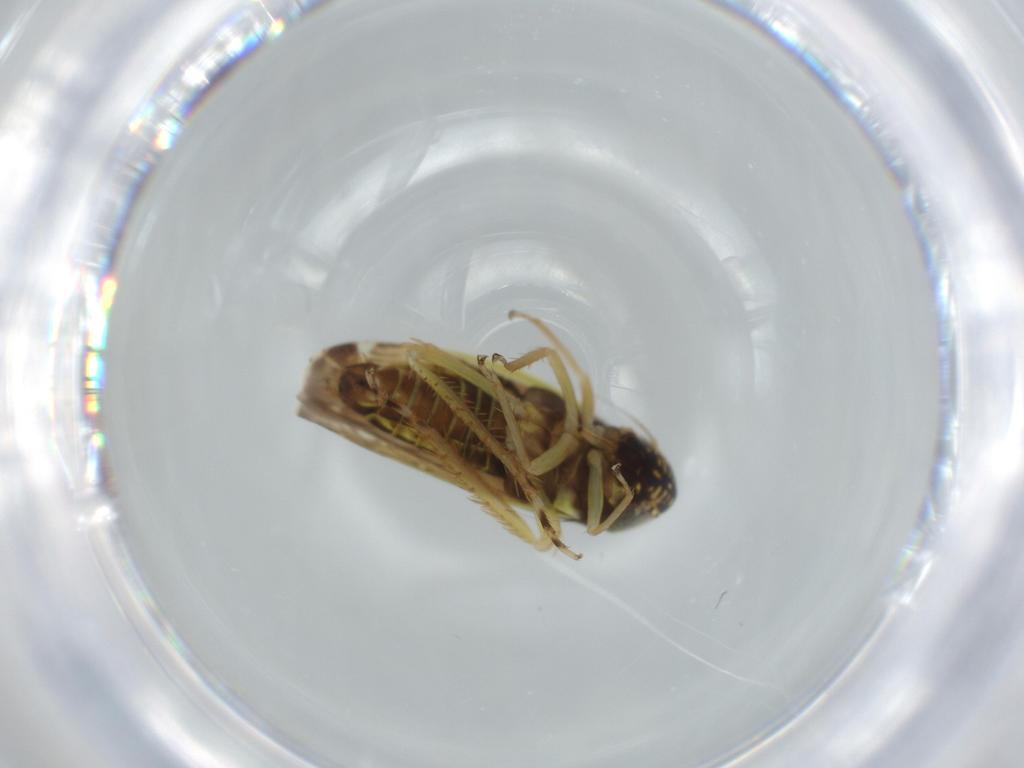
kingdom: Animalia
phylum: Arthropoda
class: Insecta
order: Hemiptera
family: Cicadellidae
